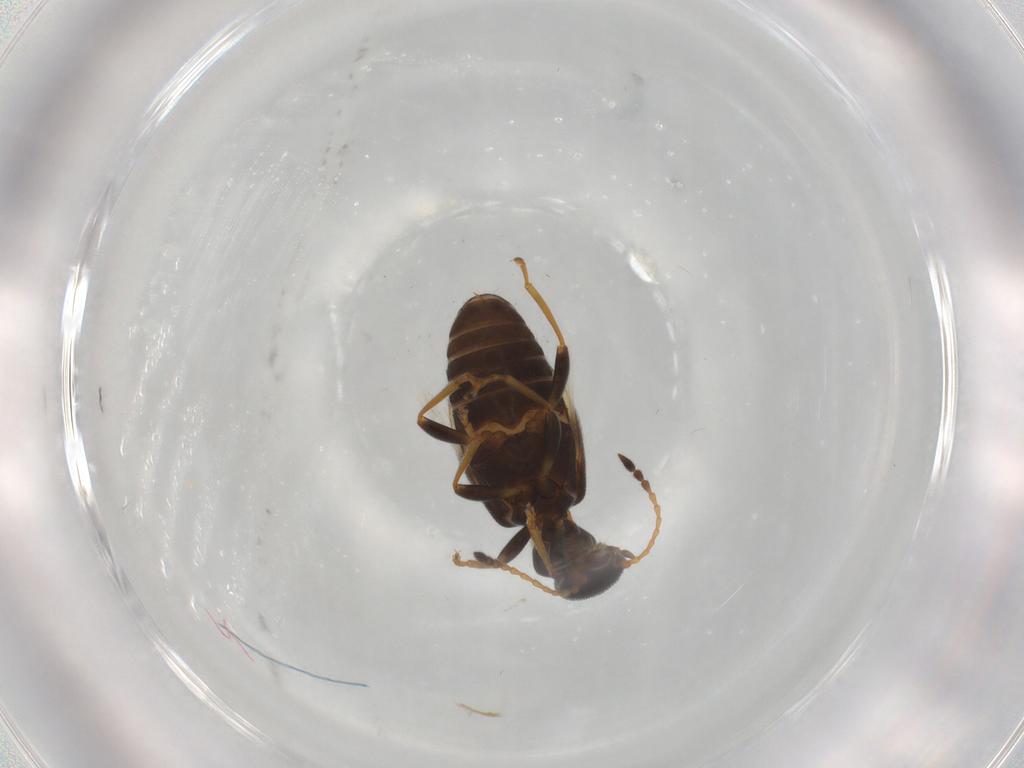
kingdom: Animalia
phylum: Arthropoda
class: Insecta
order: Coleoptera
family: Anthicidae
